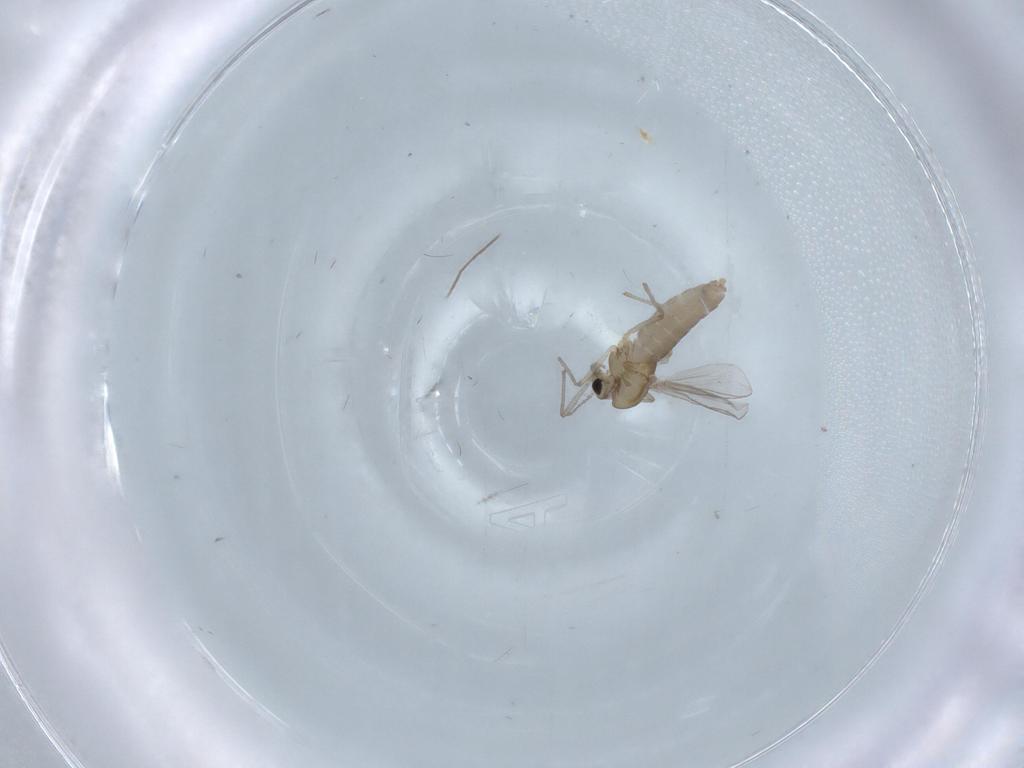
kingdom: Animalia
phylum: Arthropoda
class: Insecta
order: Diptera
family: Chironomidae
